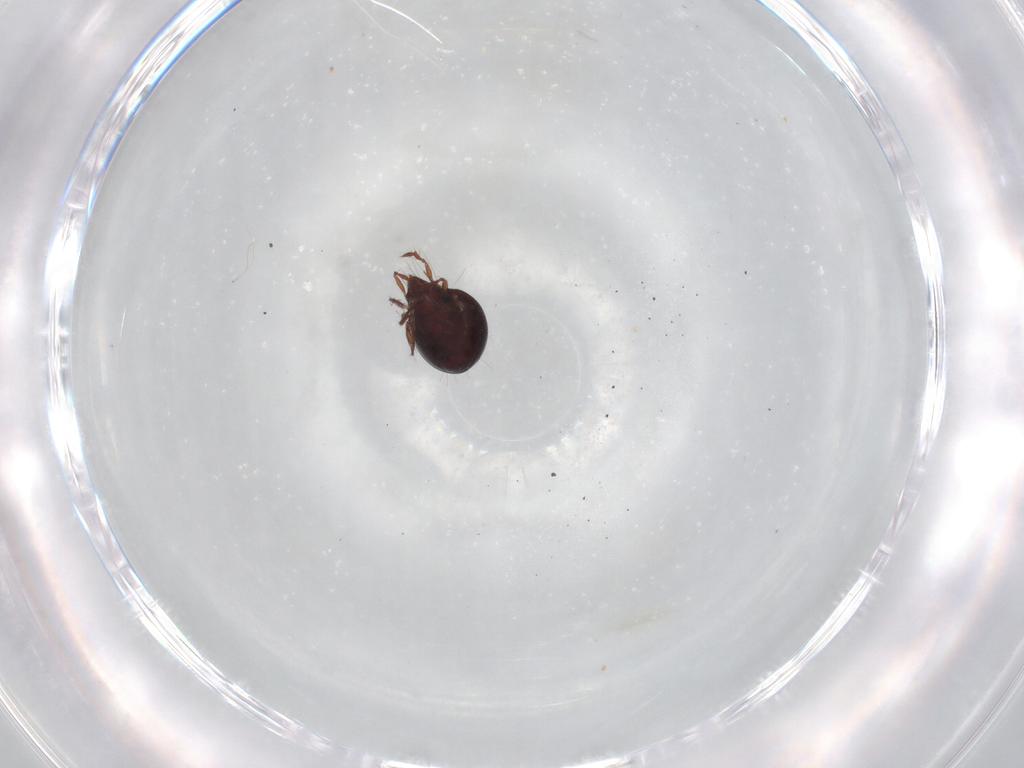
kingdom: Animalia
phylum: Arthropoda
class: Arachnida
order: Sarcoptiformes
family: Ceratoppiidae
